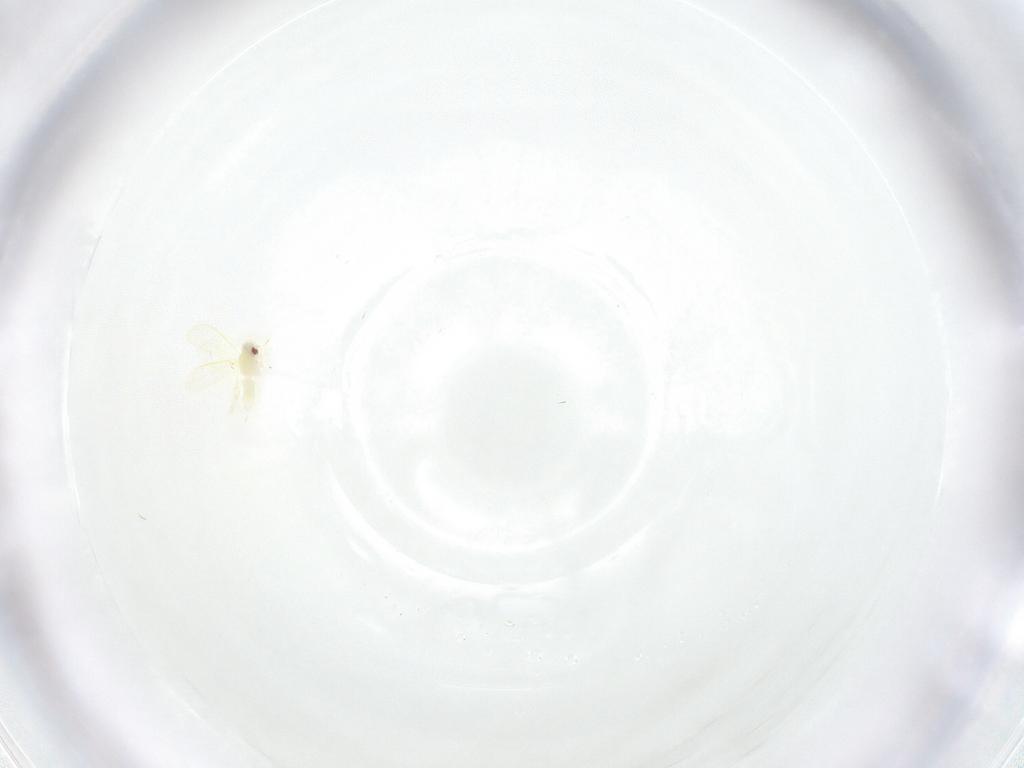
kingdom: Animalia
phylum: Arthropoda
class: Insecta
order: Hemiptera
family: Aleyrodidae
